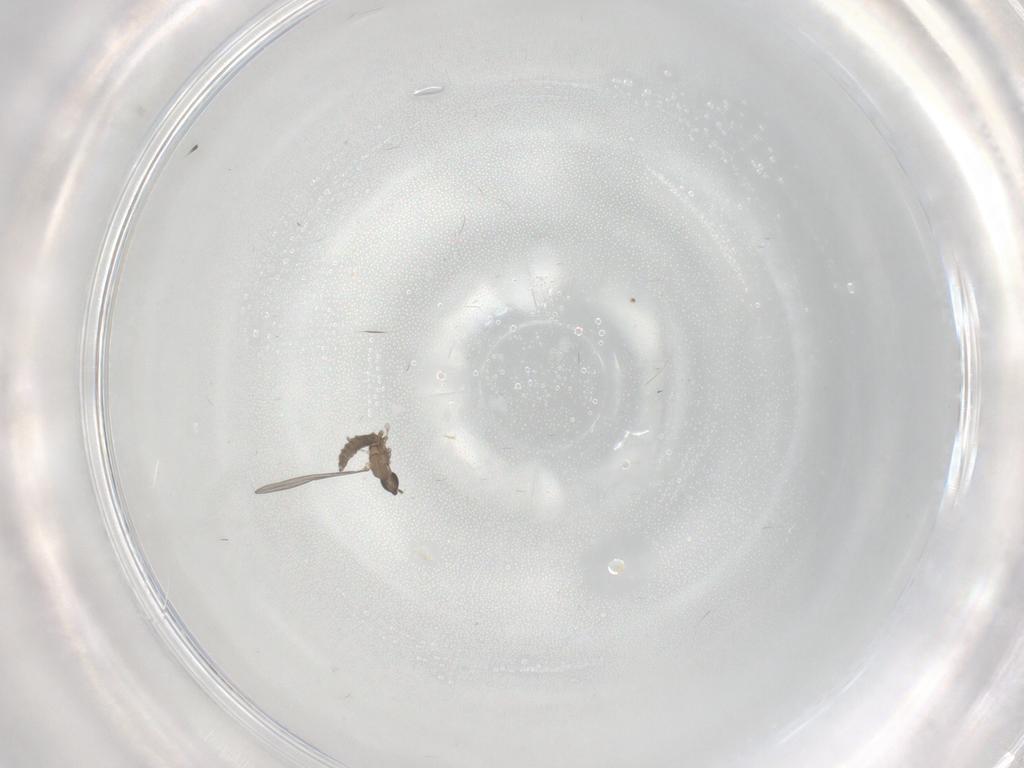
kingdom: Animalia
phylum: Arthropoda
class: Insecta
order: Diptera
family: Cecidomyiidae
